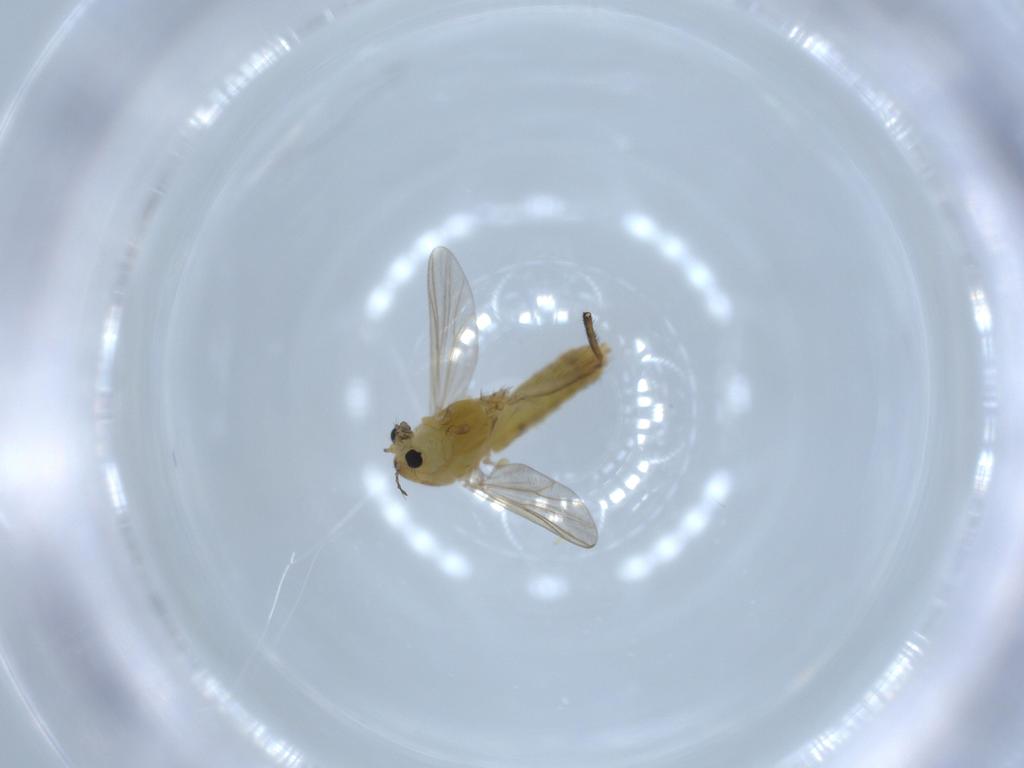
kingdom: Animalia
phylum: Arthropoda
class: Insecta
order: Diptera
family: Chironomidae
